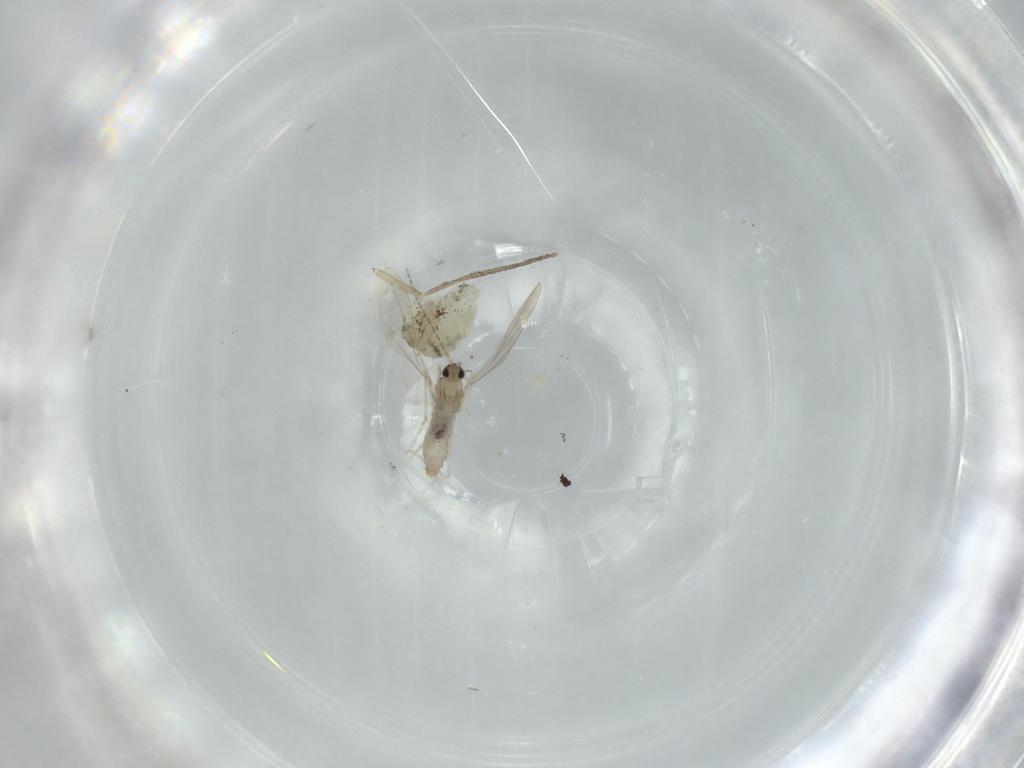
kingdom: Animalia
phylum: Arthropoda
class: Insecta
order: Diptera
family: Stratiomyidae
